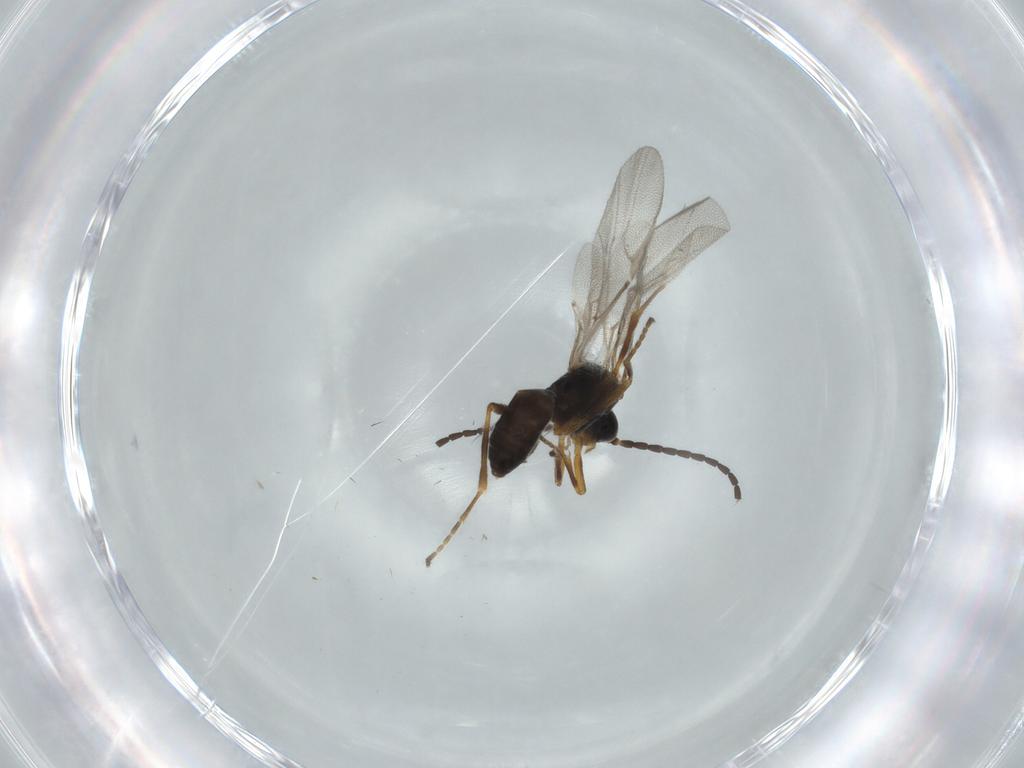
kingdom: Animalia
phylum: Arthropoda
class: Insecta
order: Hymenoptera
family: Braconidae
